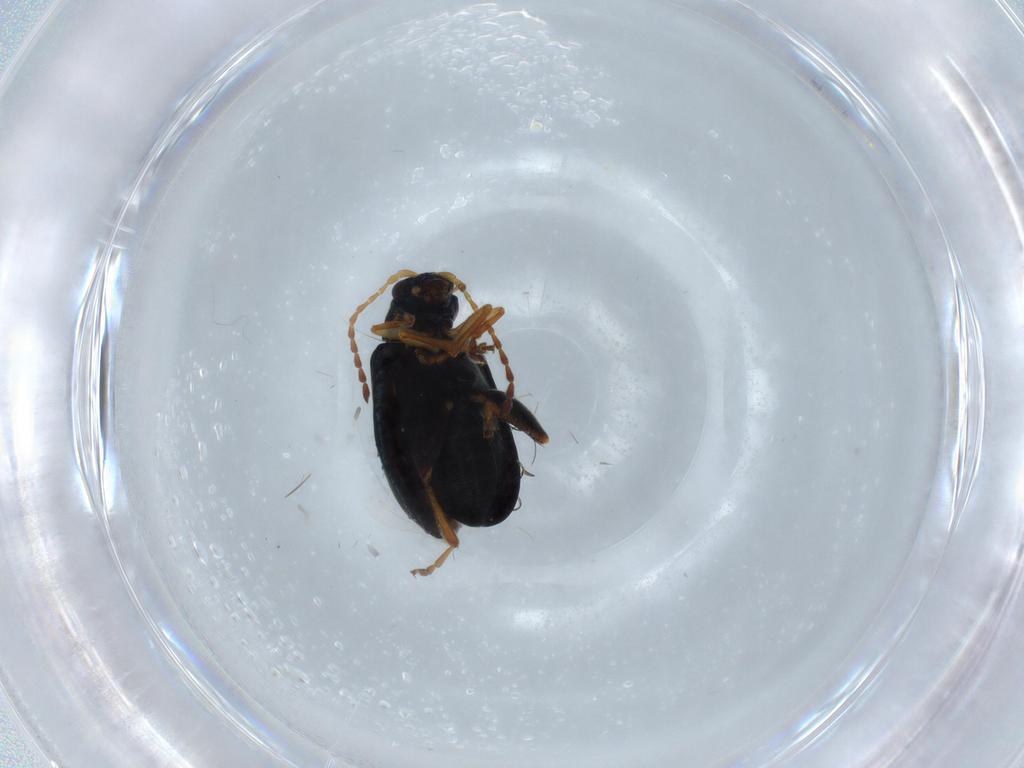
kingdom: Animalia
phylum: Arthropoda
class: Insecta
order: Coleoptera
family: Chrysomelidae
